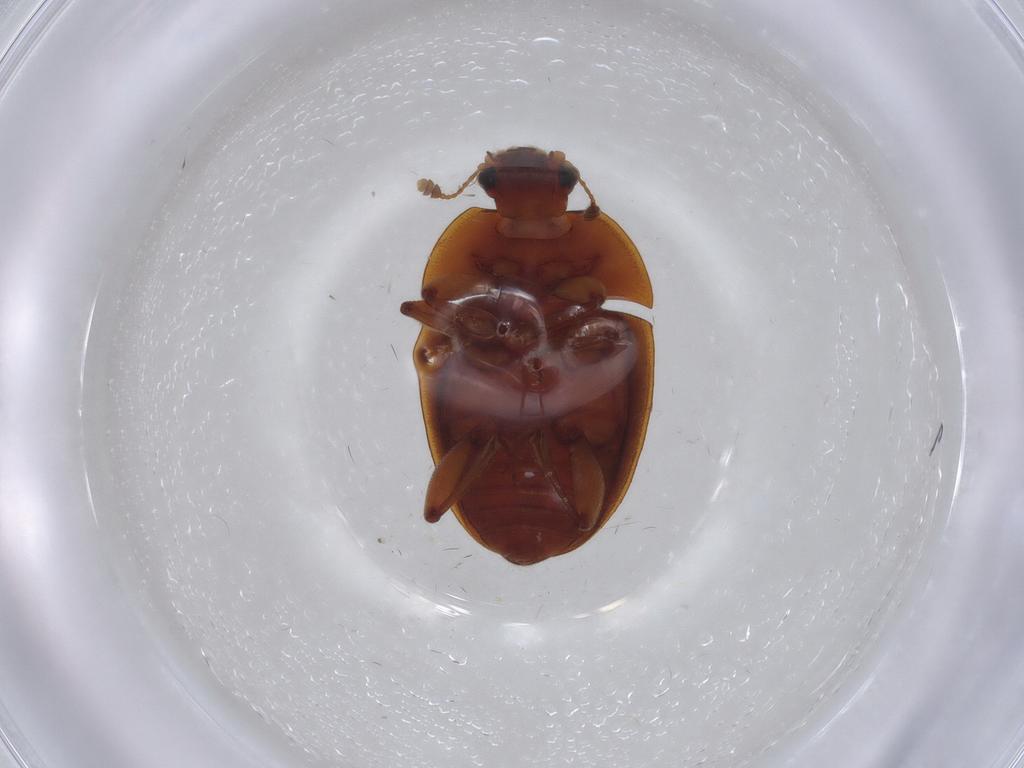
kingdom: Animalia
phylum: Arthropoda
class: Insecta
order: Coleoptera
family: Nitidulidae
